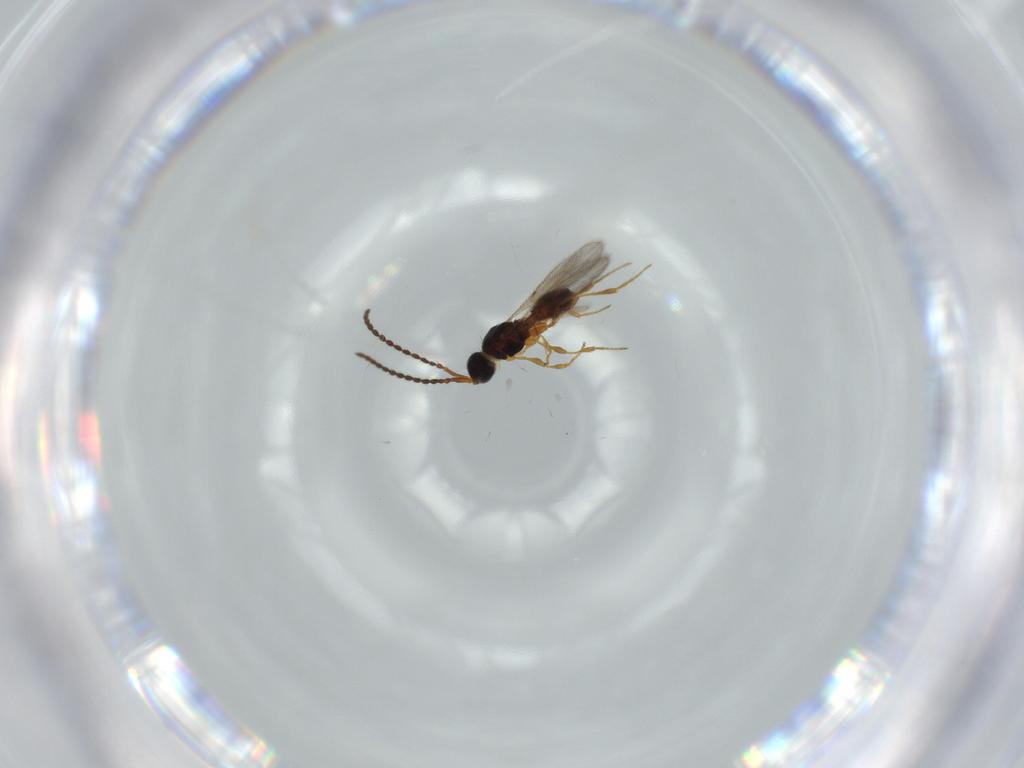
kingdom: Animalia
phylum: Arthropoda
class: Insecta
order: Hymenoptera
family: Diapriidae
